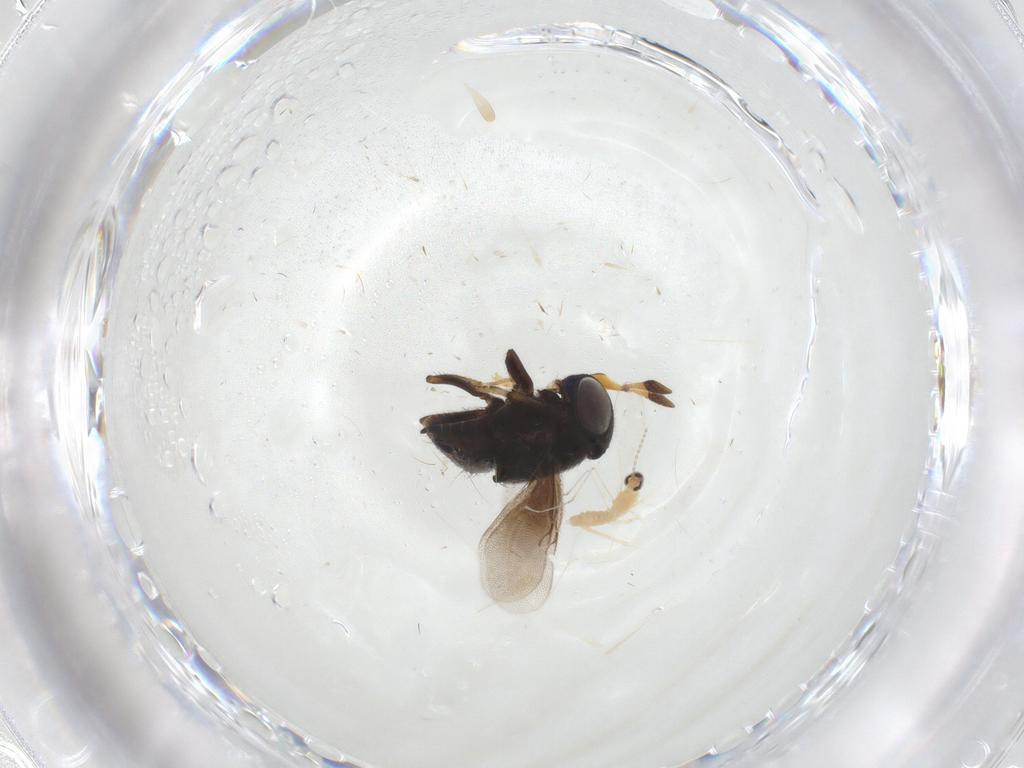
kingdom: Animalia
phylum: Arthropoda
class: Insecta
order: Diptera
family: Cecidomyiidae
